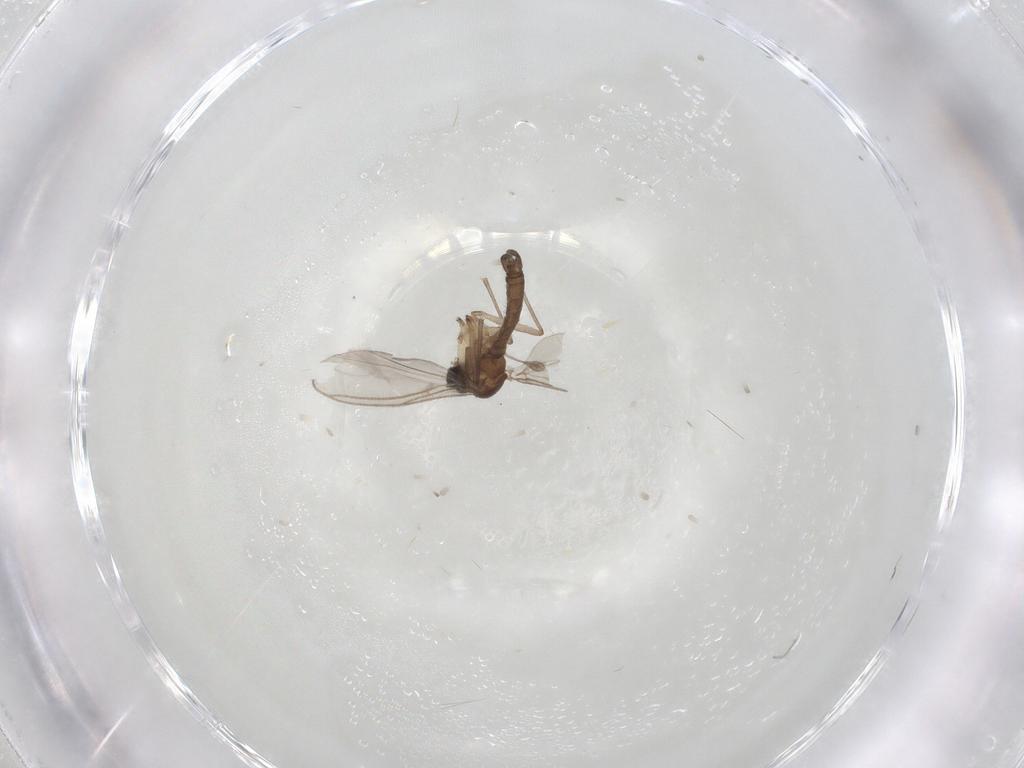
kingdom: Animalia
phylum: Arthropoda
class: Insecta
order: Diptera
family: Sciaridae
